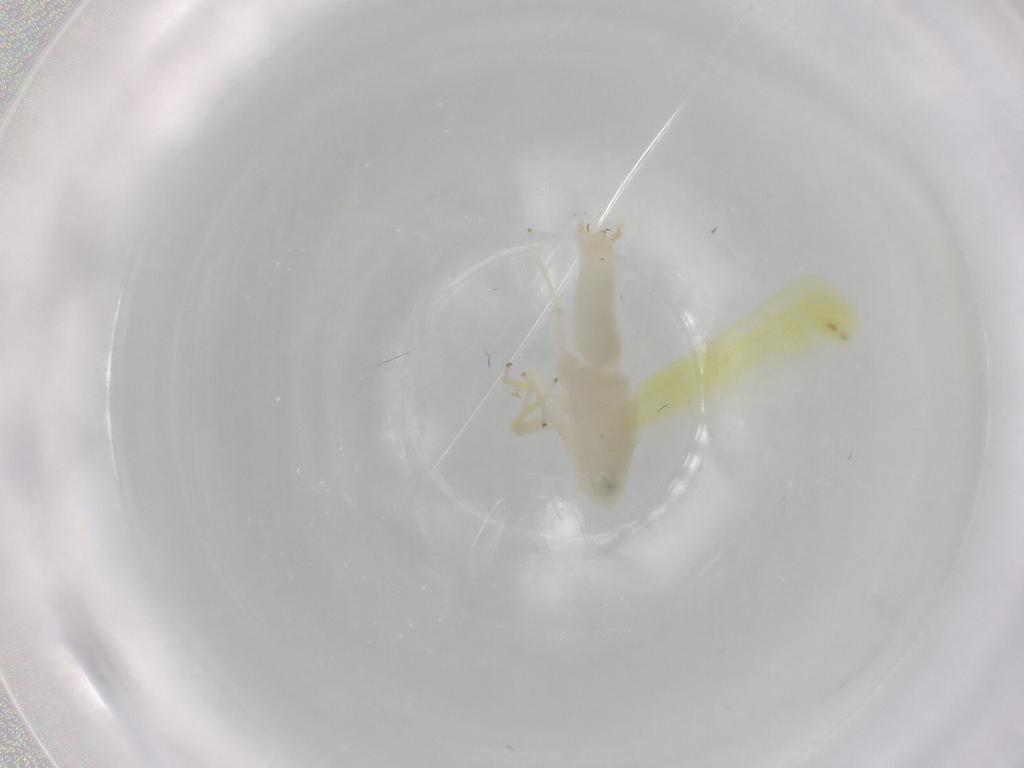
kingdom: Animalia
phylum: Arthropoda
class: Insecta
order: Hemiptera
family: Cicadellidae
